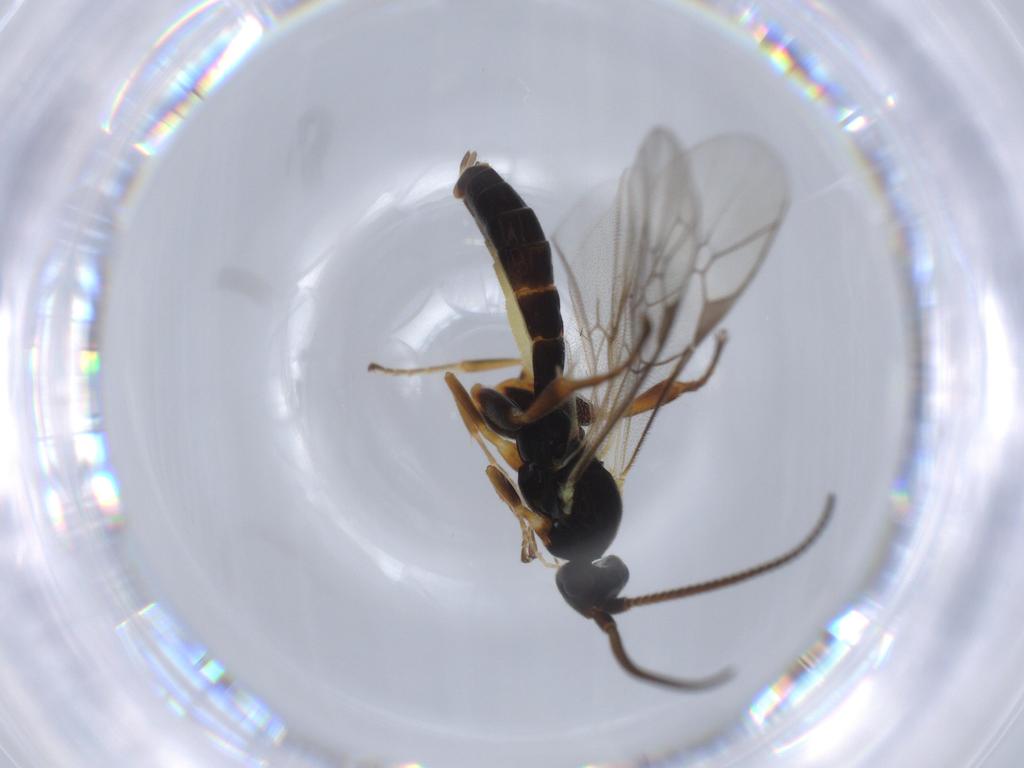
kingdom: Animalia
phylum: Arthropoda
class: Insecta
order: Hymenoptera
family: Ichneumonidae
